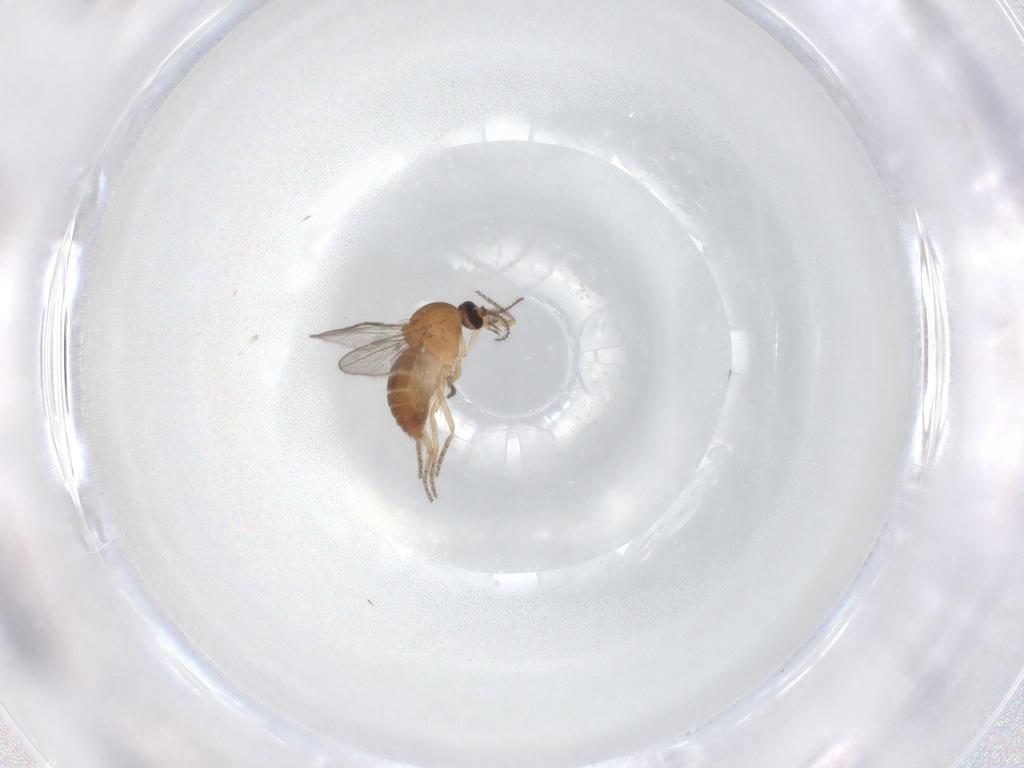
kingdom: Animalia
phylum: Arthropoda
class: Insecta
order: Diptera
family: Ceratopogonidae
